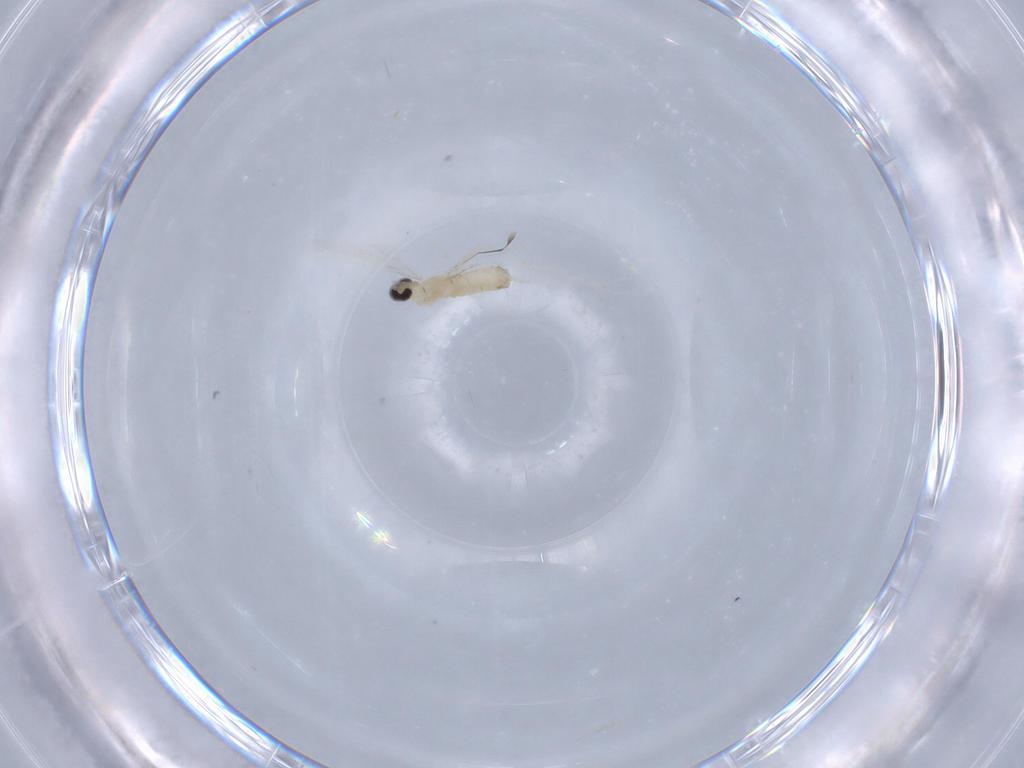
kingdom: Animalia
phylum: Arthropoda
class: Insecta
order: Diptera
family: Cecidomyiidae
